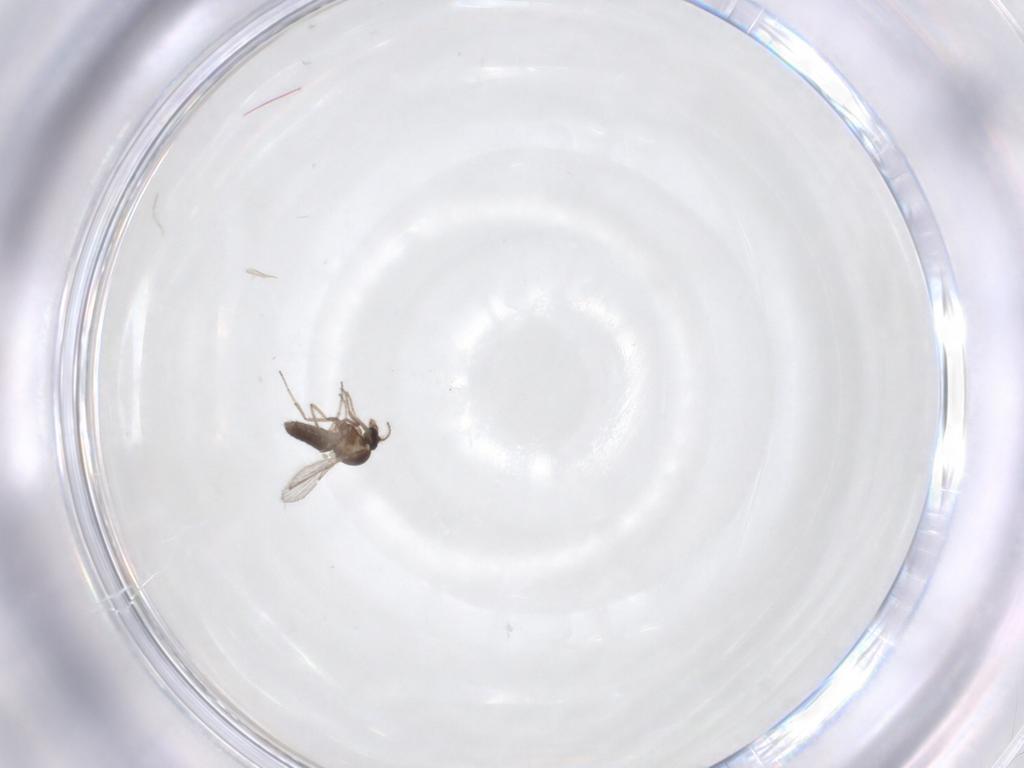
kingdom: Animalia
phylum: Arthropoda
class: Insecta
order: Diptera
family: Ceratopogonidae
